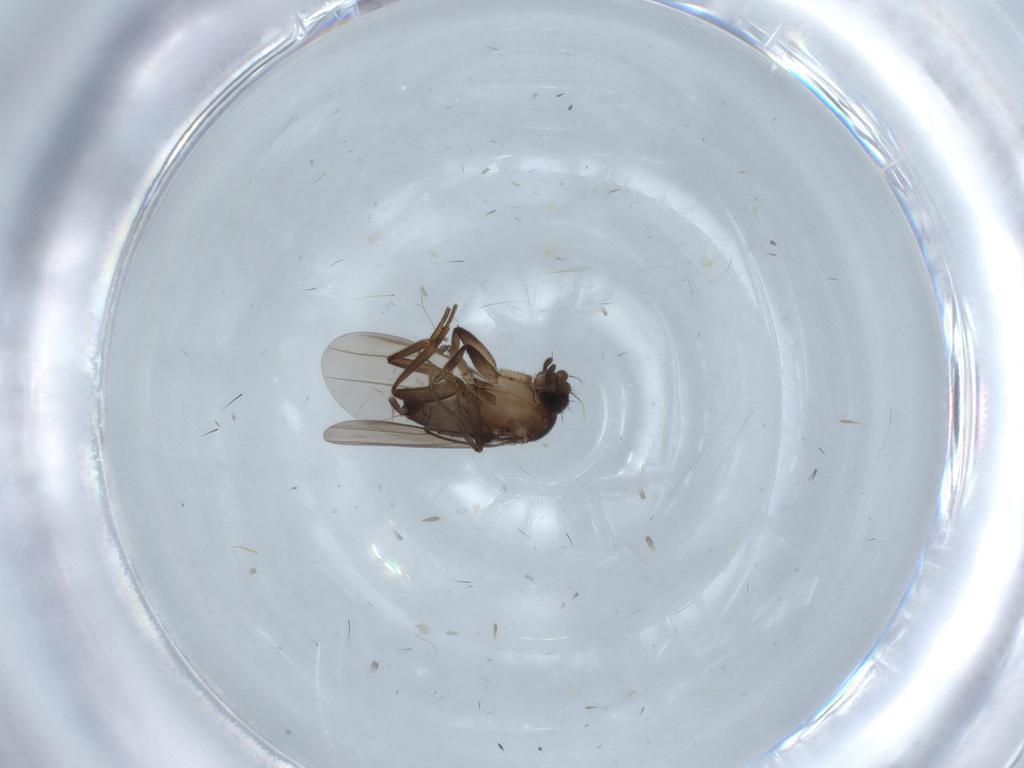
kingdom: Animalia
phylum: Arthropoda
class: Insecta
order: Diptera
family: Limoniidae
